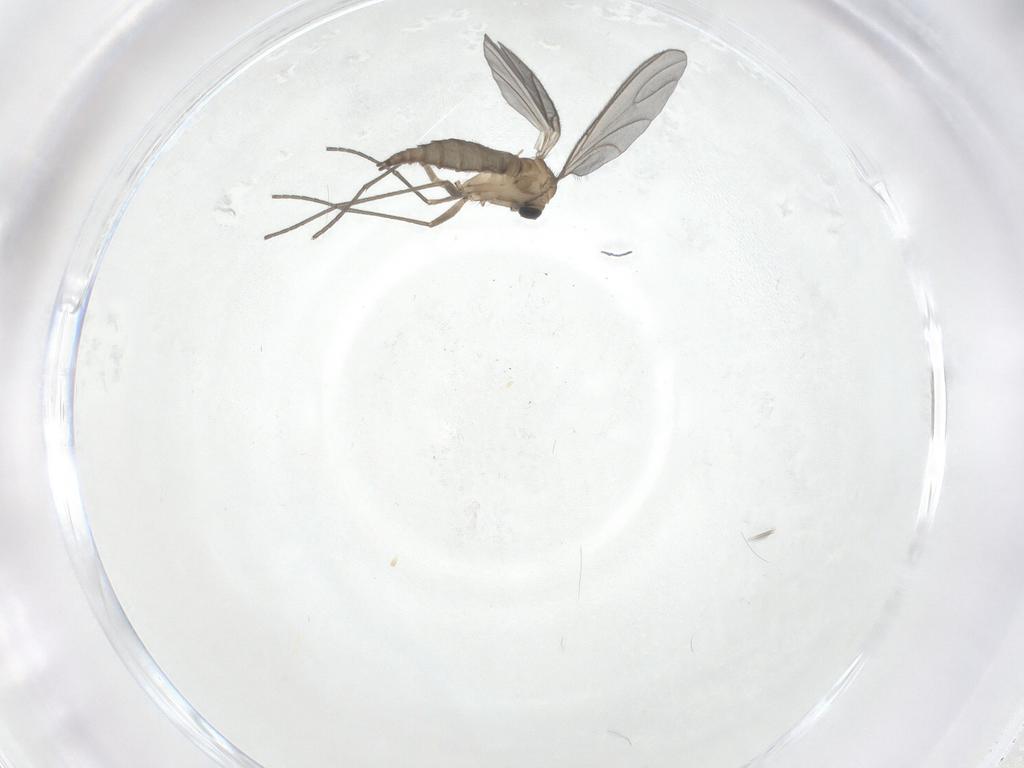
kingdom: Animalia
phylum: Arthropoda
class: Insecta
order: Diptera
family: Sciaridae
